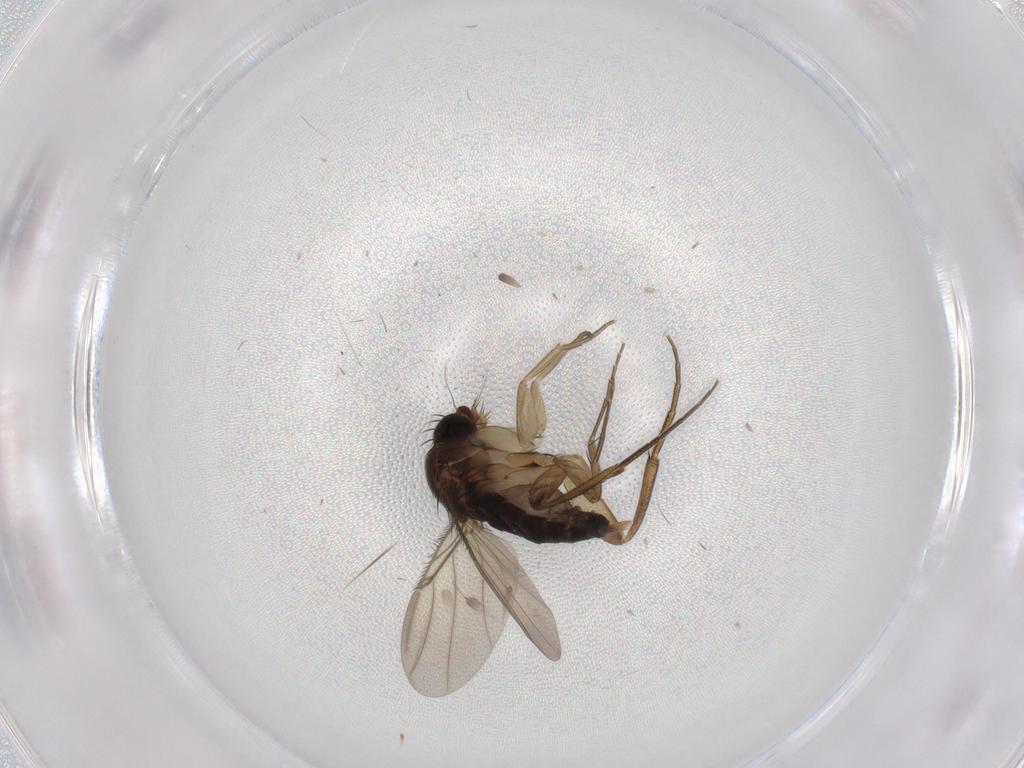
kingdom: Animalia
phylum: Arthropoda
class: Insecta
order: Diptera
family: Phoridae
